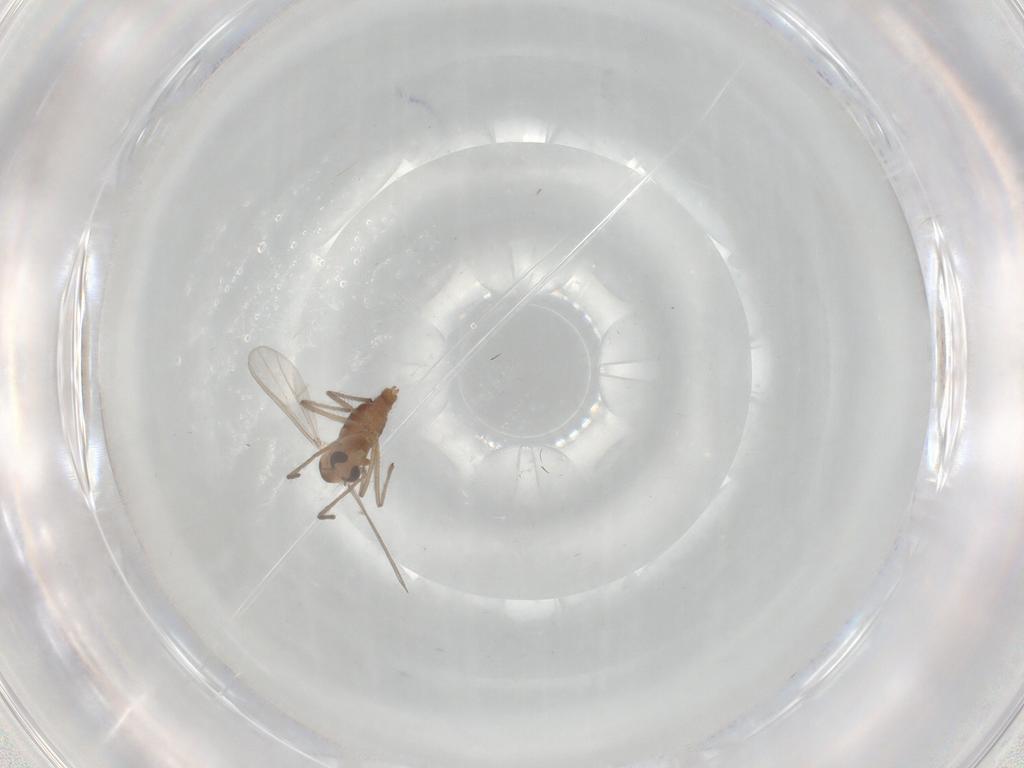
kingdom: Animalia
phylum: Arthropoda
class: Insecta
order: Diptera
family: Chironomidae
